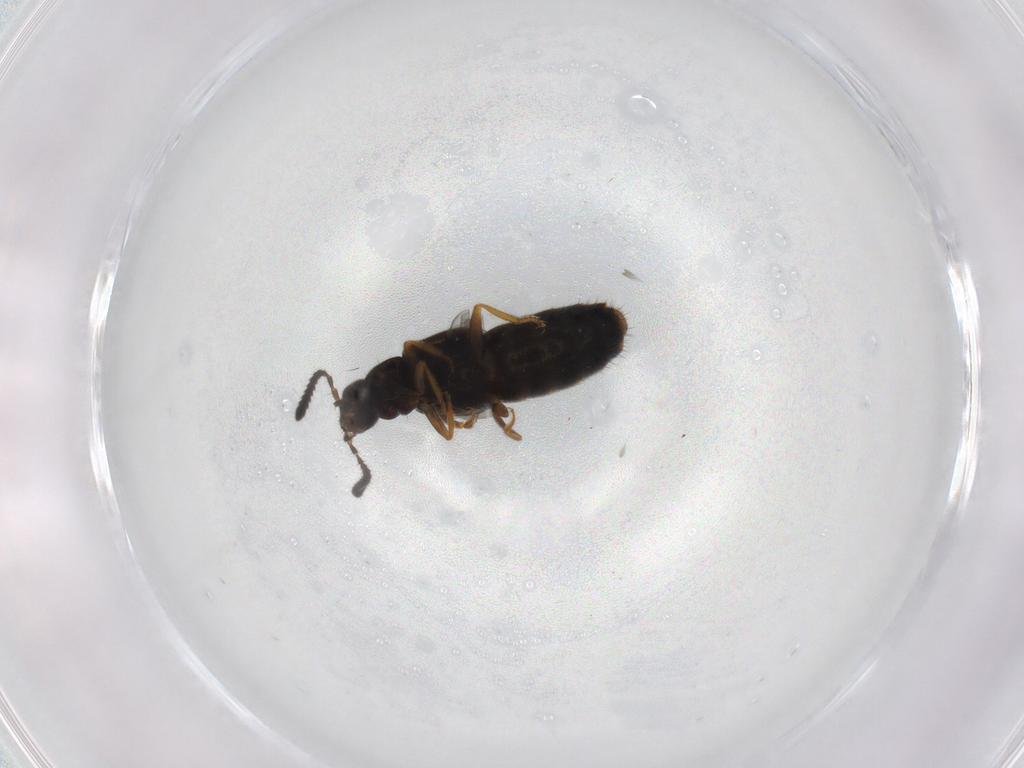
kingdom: Animalia
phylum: Arthropoda
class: Insecta
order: Coleoptera
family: Staphylinidae
